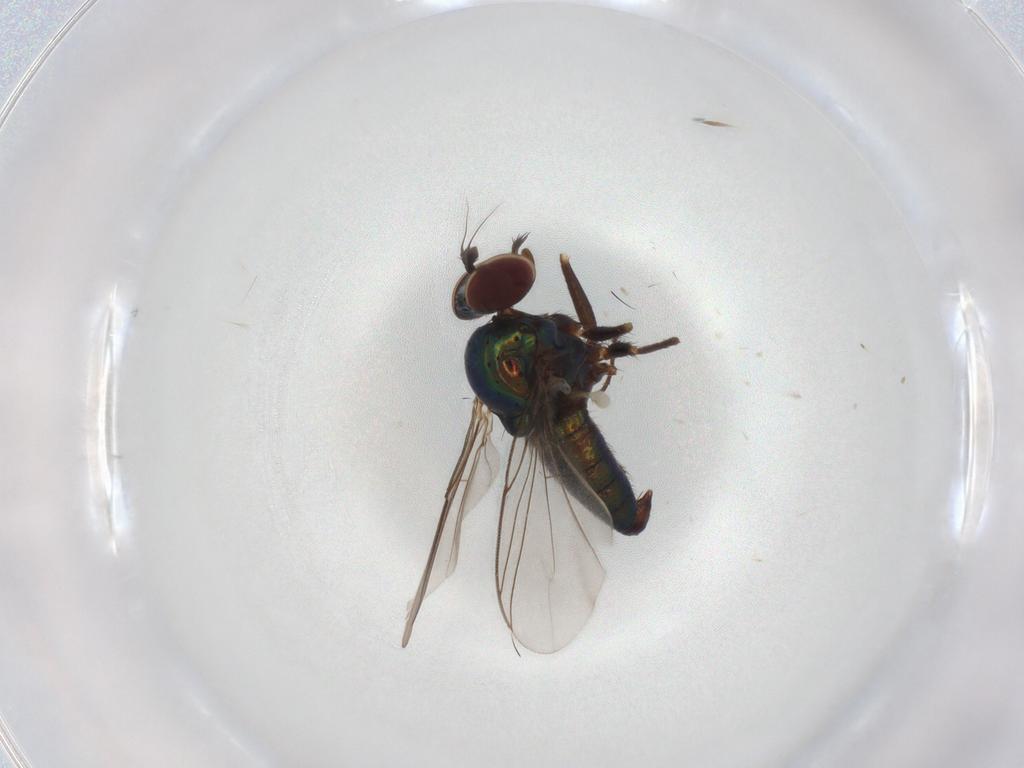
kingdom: Animalia
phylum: Arthropoda
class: Insecta
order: Diptera
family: Dolichopodidae
